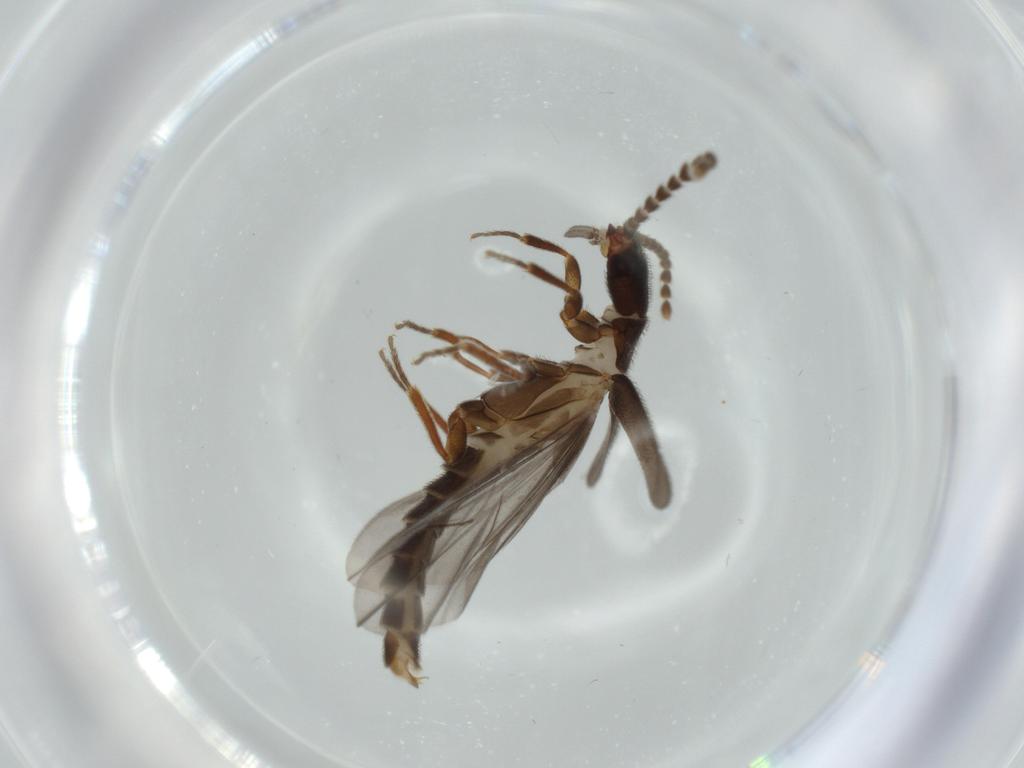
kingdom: Animalia
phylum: Arthropoda
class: Insecta
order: Coleoptera
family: Omethidae
